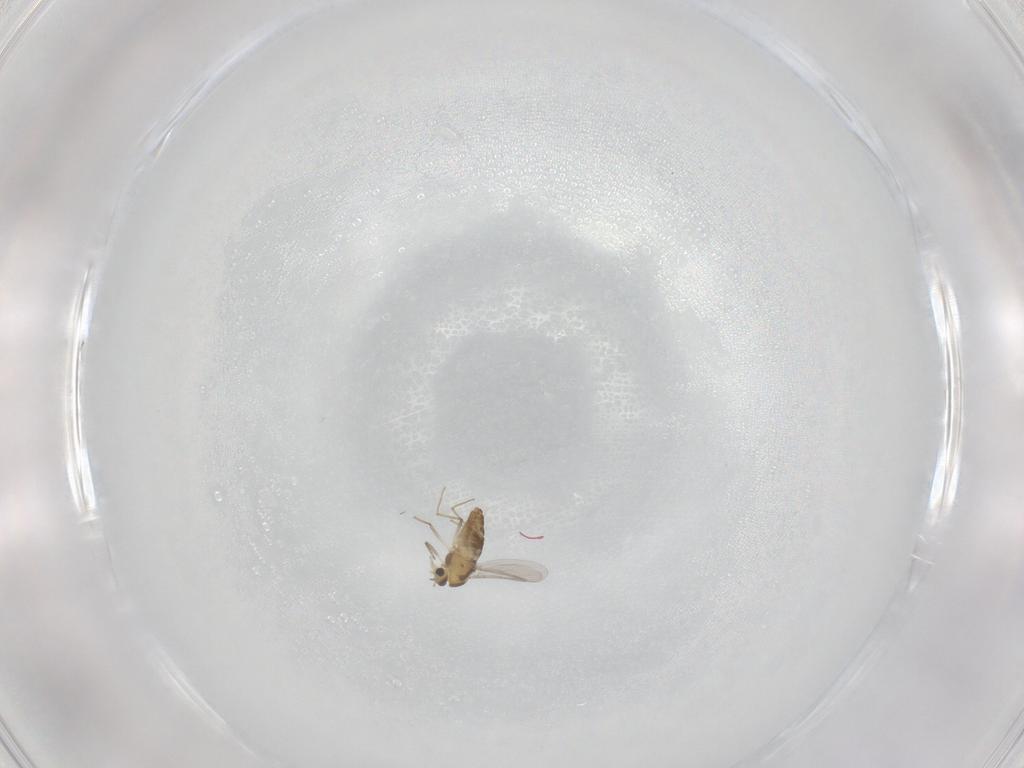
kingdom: Animalia
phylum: Arthropoda
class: Insecta
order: Diptera
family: Chironomidae
